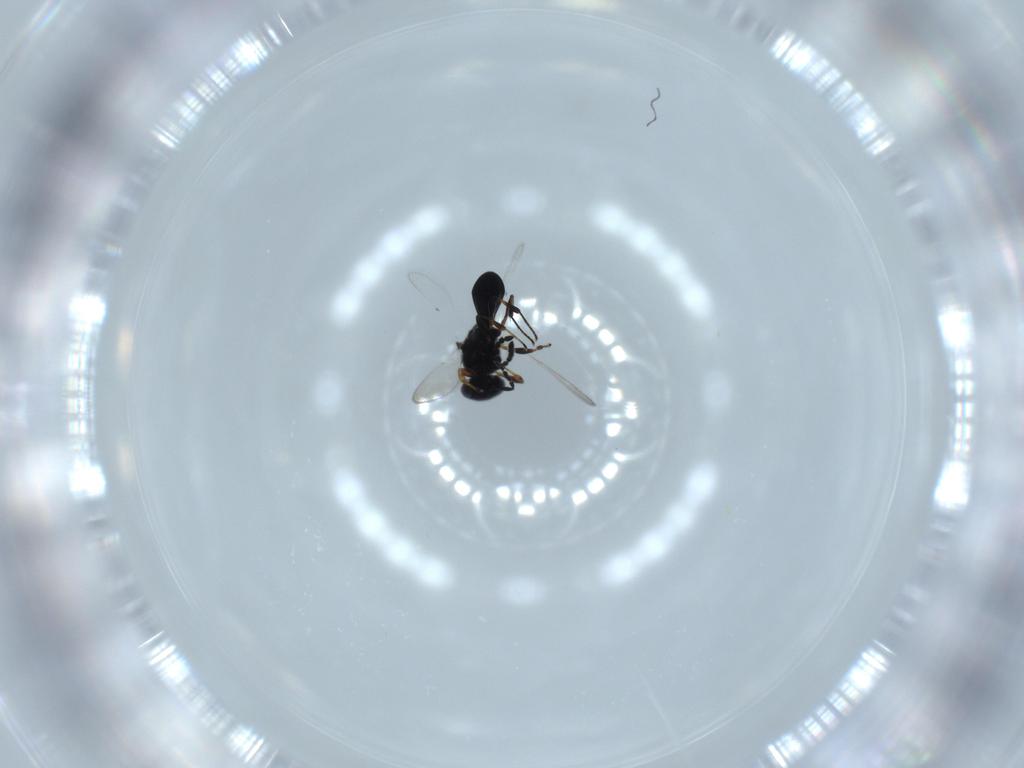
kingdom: Animalia
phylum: Arthropoda
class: Insecta
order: Hymenoptera
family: Platygastridae
